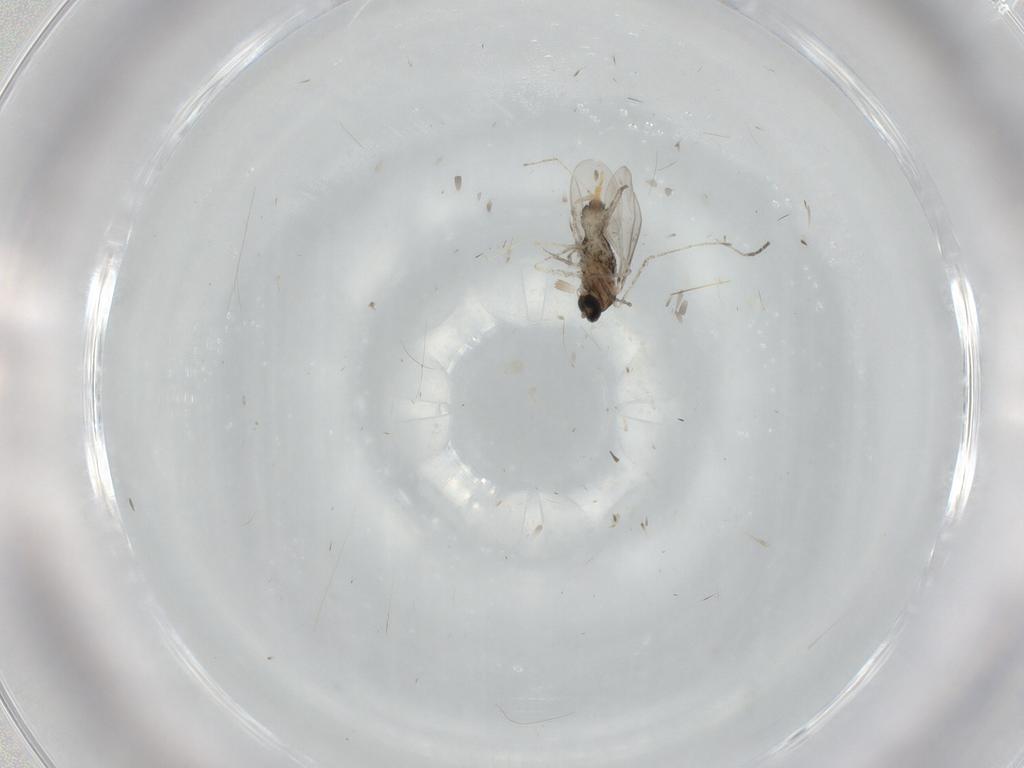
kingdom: Animalia
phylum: Arthropoda
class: Insecta
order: Diptera
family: Cecidomyiidae
